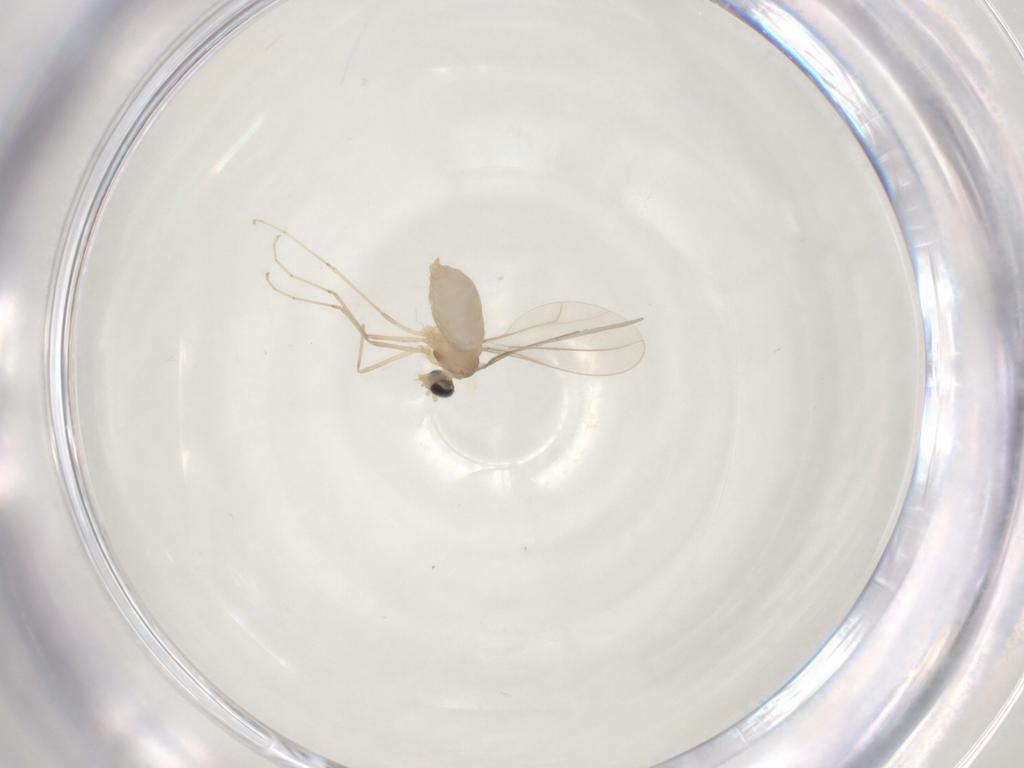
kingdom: Animalia
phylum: Arthropoda
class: Insecta
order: Diptera
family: Cecidomyiidae
